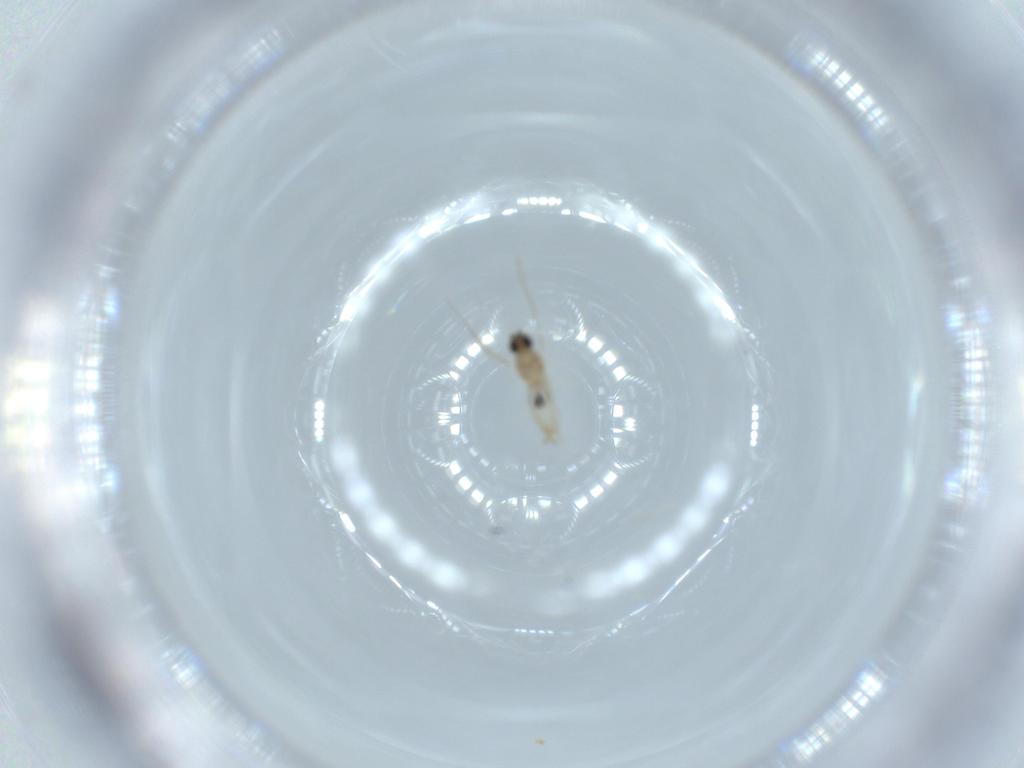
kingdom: Animalia
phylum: Arthropoda
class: Insecta
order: Diptera
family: Cecidomyiidae
